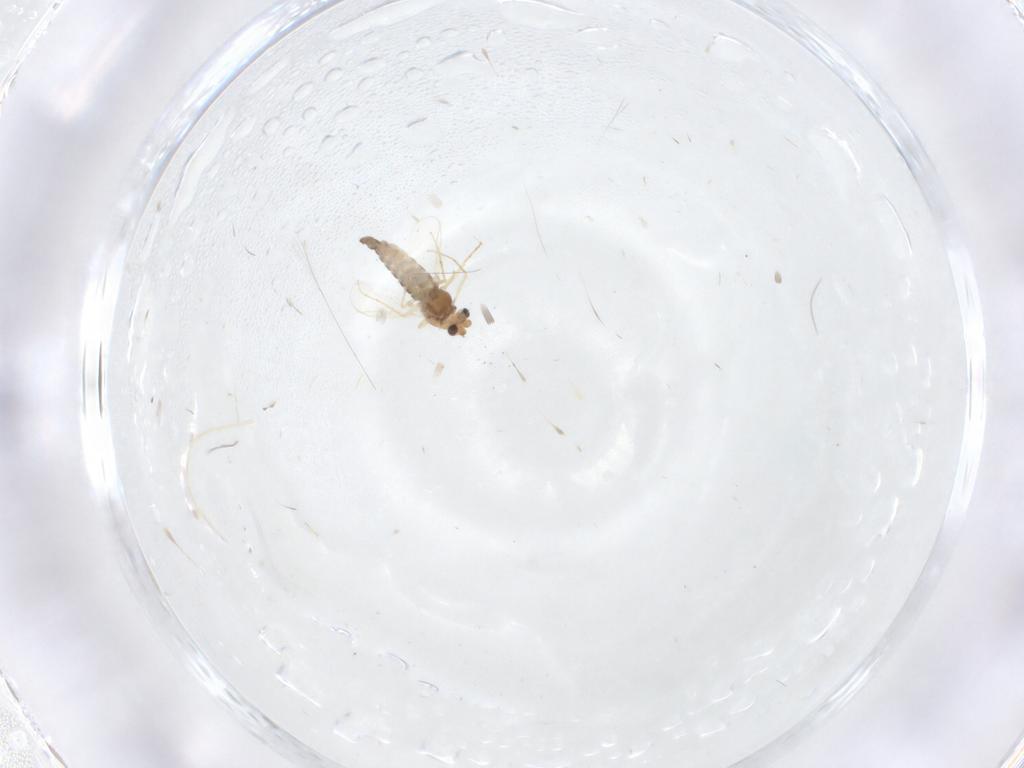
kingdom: Animalia
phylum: Arthropoda
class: Insecta
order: Diptera
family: Chironomidae
